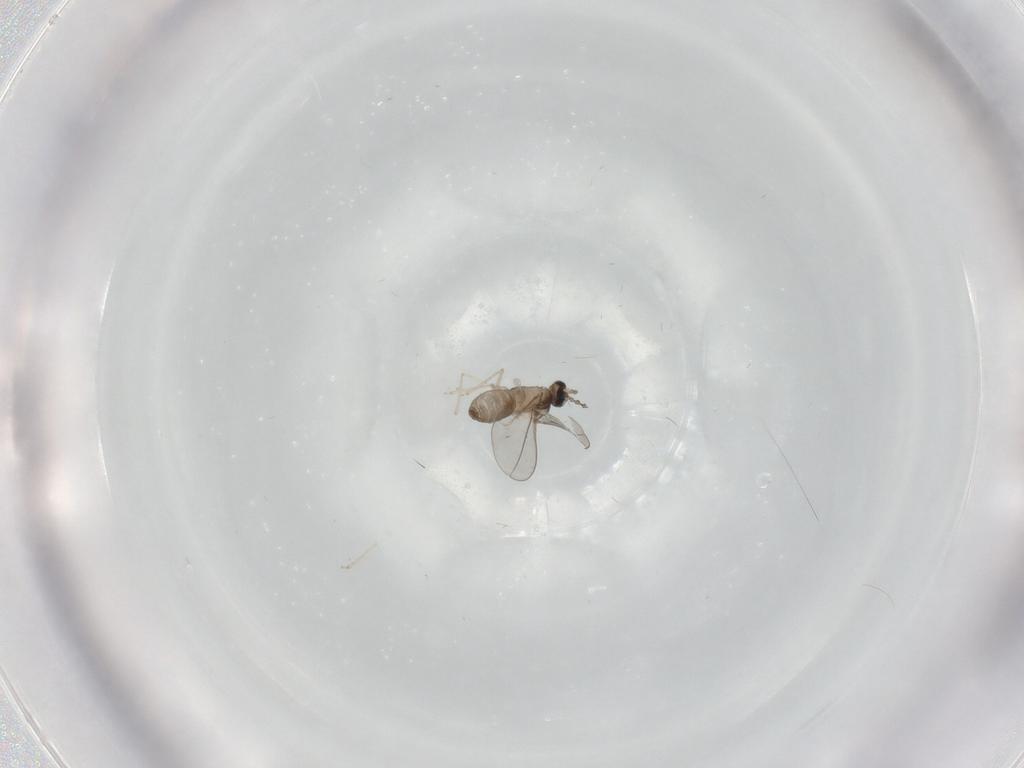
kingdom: Animalia
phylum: Arthropoda
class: Insecta
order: Diptera
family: Cecidomyiidae
